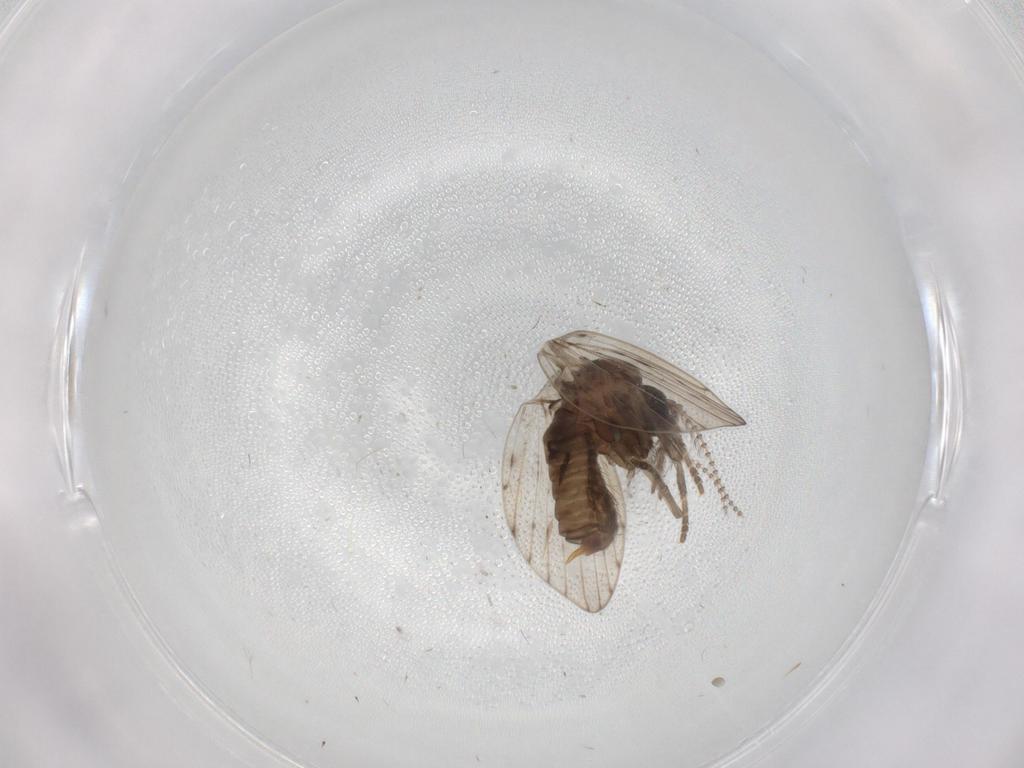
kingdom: Animalia
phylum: Arthropoda
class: Insecta
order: Diptera
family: Psychodidae
